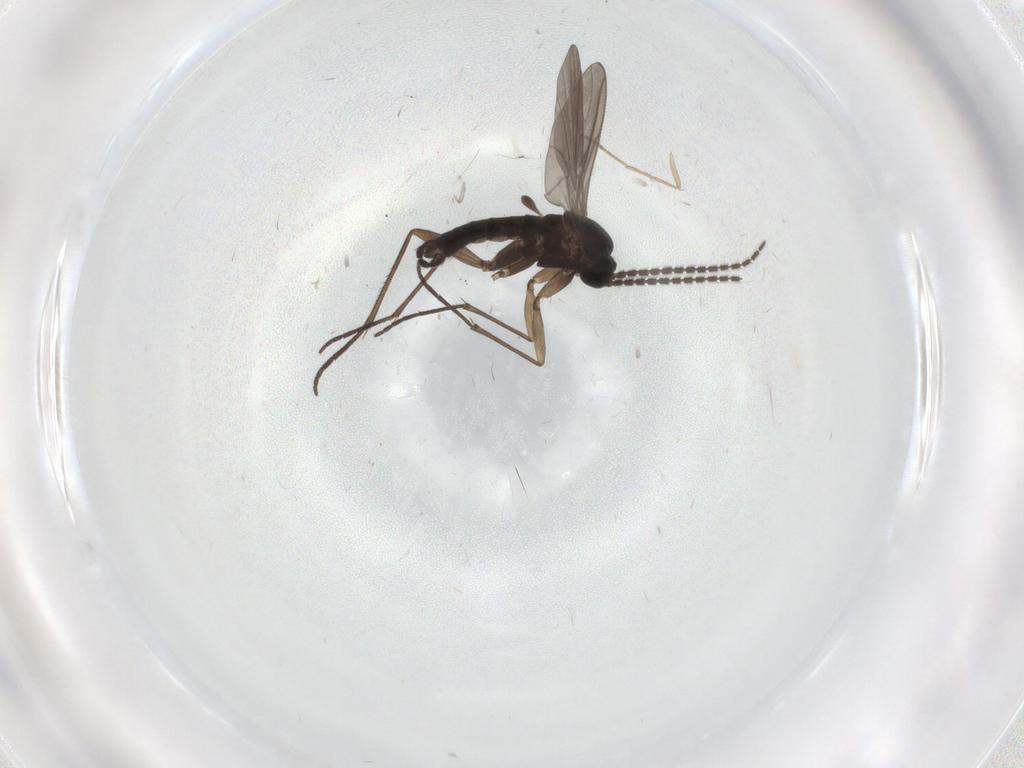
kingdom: Animalia
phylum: Arthropoda
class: Insecta
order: Diptera
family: Sciaridae
